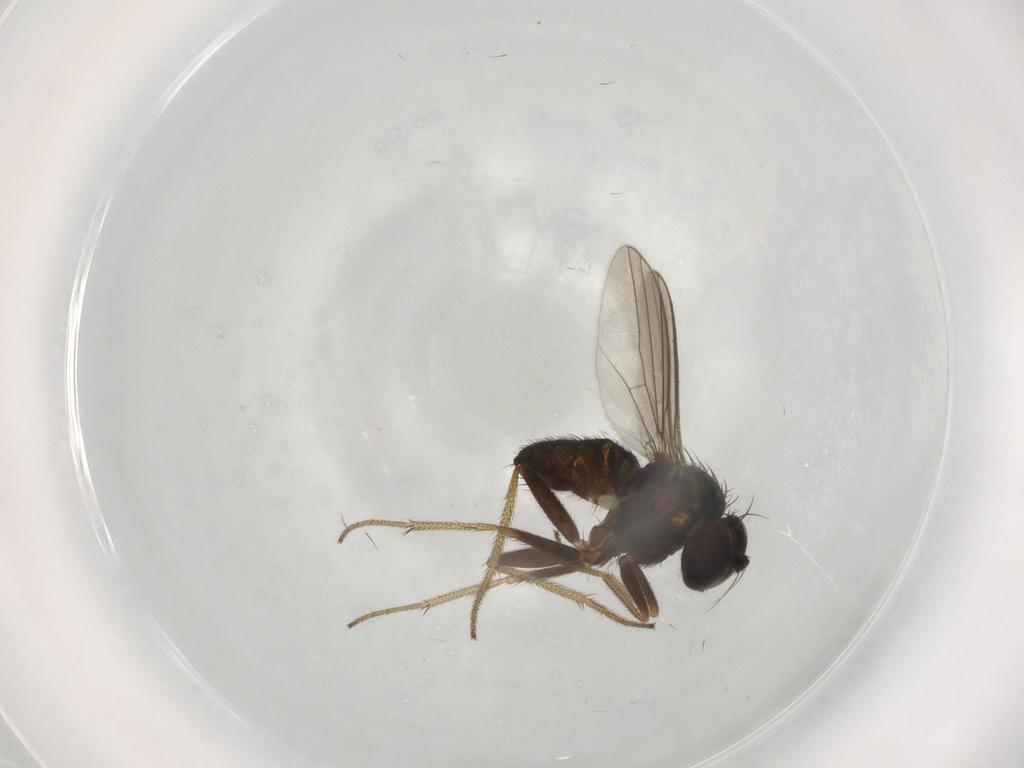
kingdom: Animalia
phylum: Arthropoda
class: Insecta
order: Diptera
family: Cecidomyiidae
